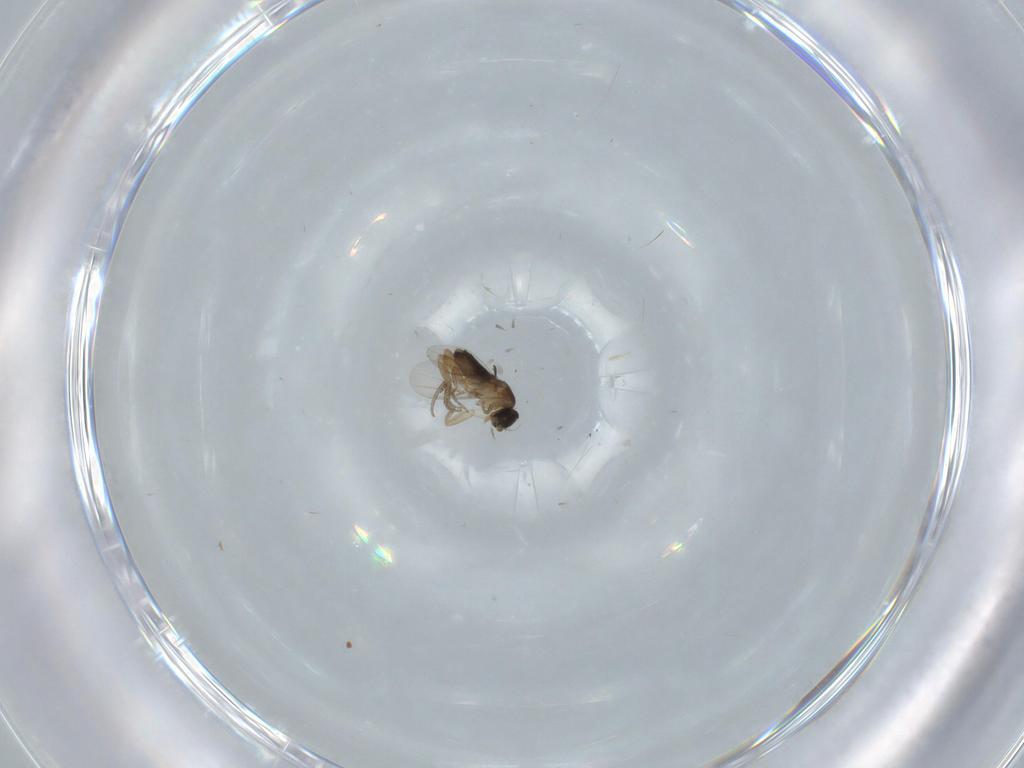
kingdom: Animalia
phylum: Arthropoda
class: Insecta
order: Diptera
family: Phoridae
